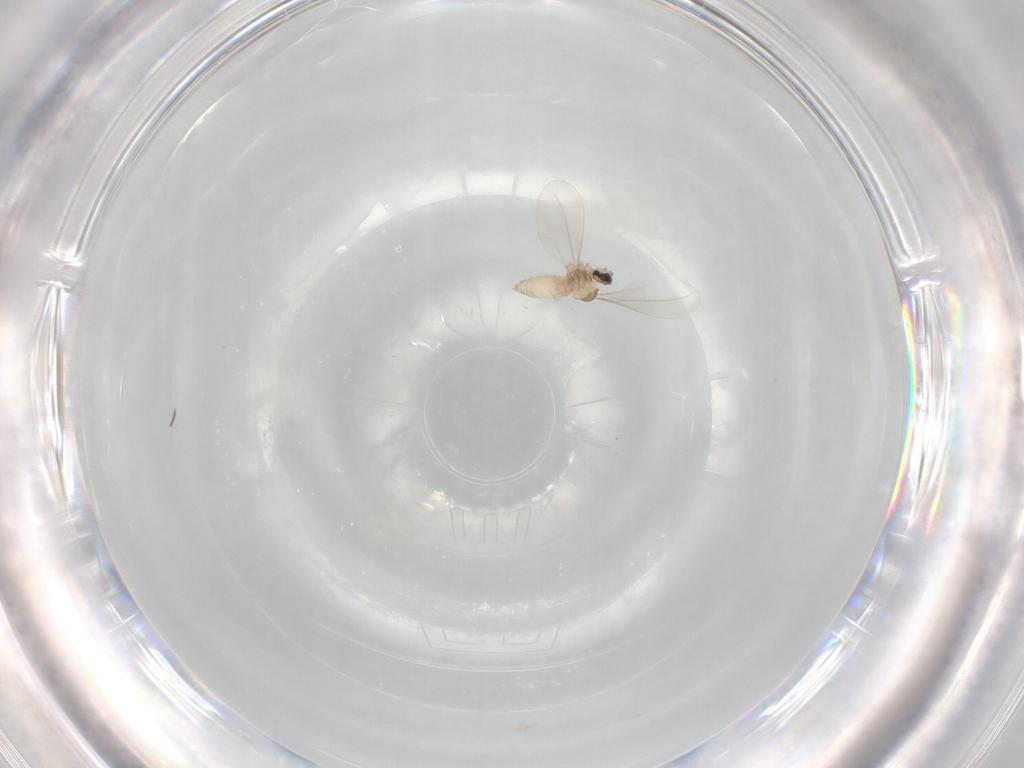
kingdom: Animalia
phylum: Arthropoda
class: Insecta
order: Diptera
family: Cecidomyiidae
